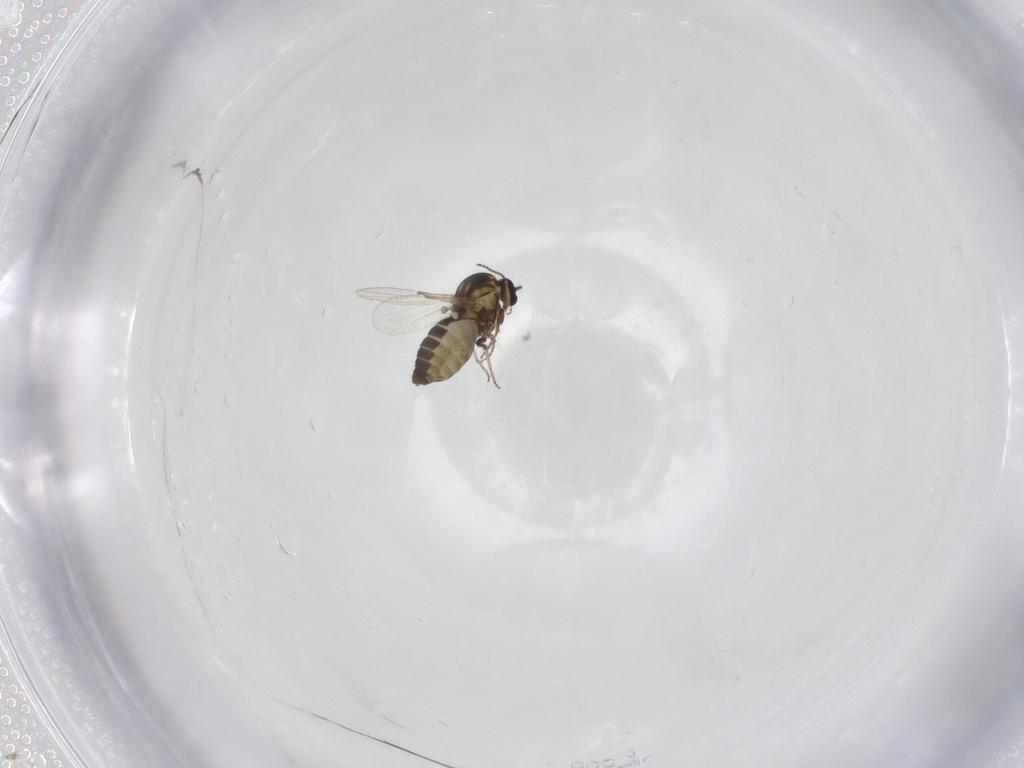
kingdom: Animalia
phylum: Arthropoda
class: Insecta
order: Diptera
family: Ceratopogonidae
